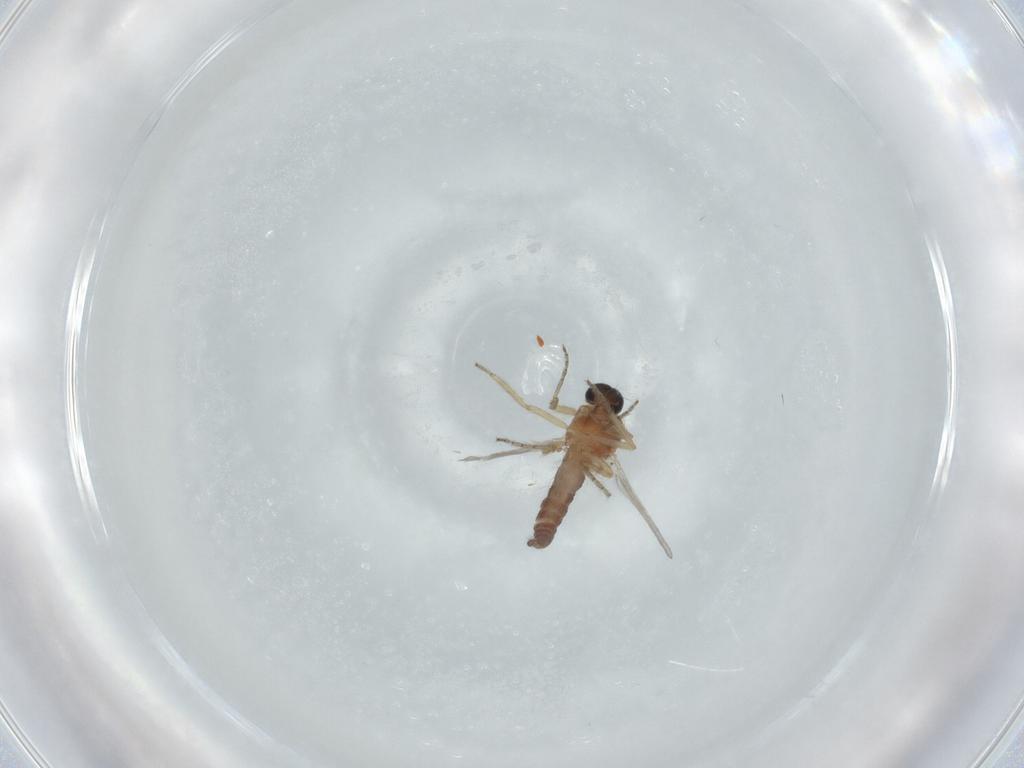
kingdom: Animalia
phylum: Arthropoda
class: Insecta
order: Diptera
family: Ceratopogonidae
